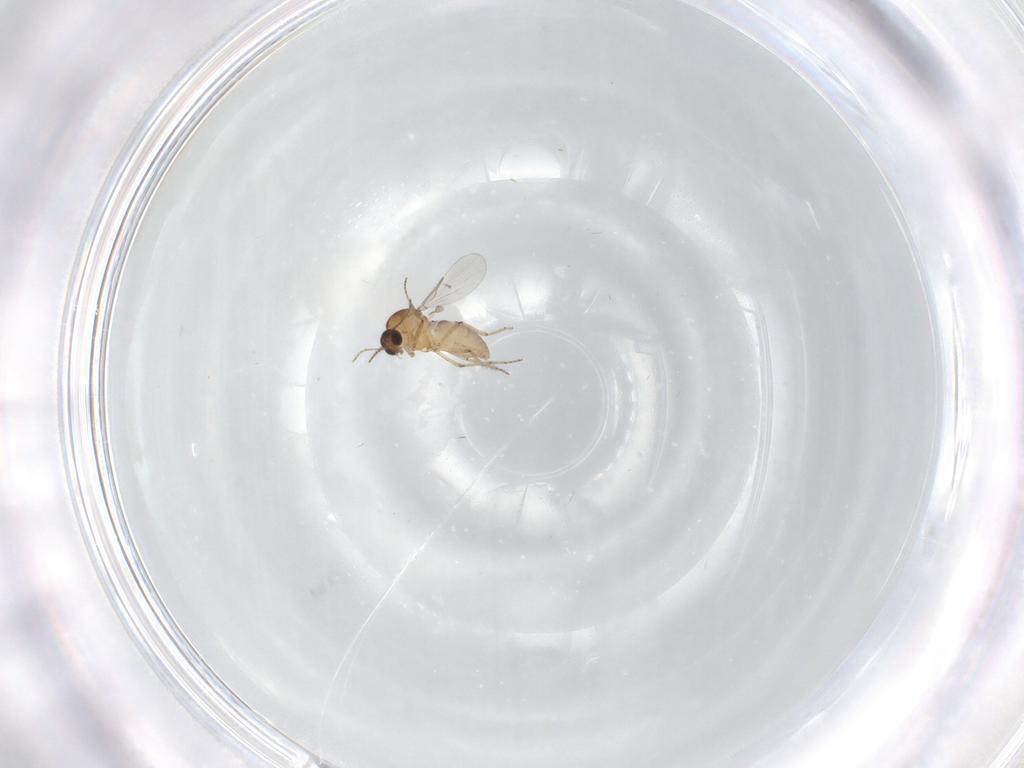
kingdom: Animalia
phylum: Arthropoda
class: Insecta
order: Diptera
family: Ceratopogonidae
